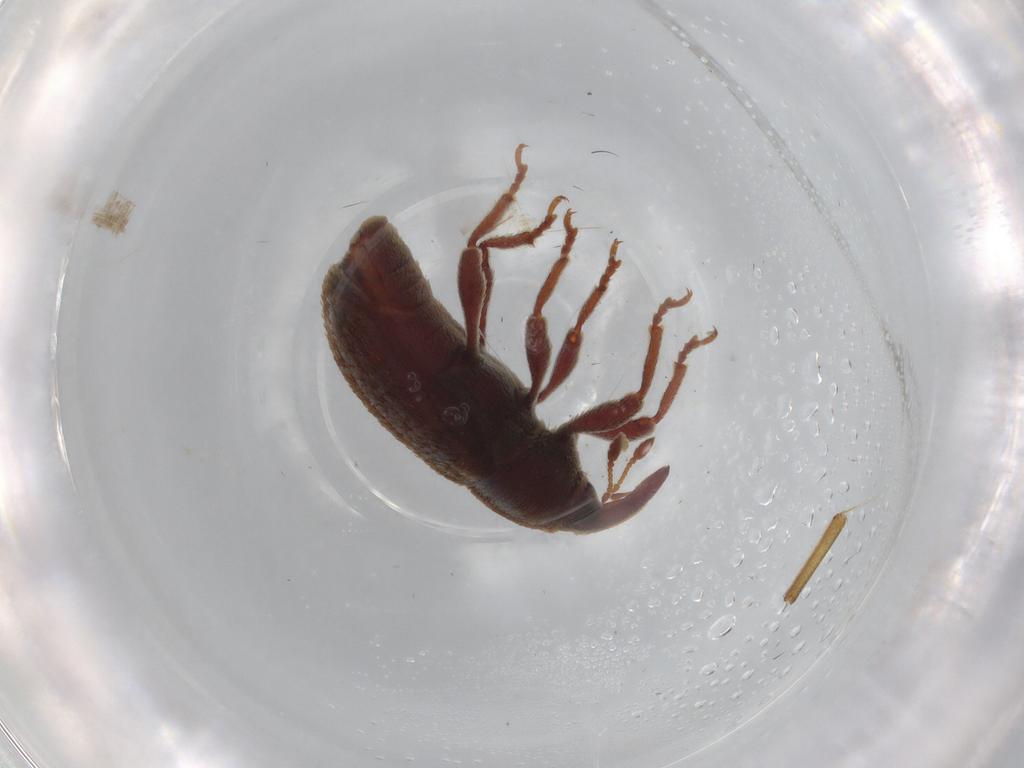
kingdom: Animalia
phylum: Arthropoda
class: Insecta
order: Coleoptera
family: Curculionidae
